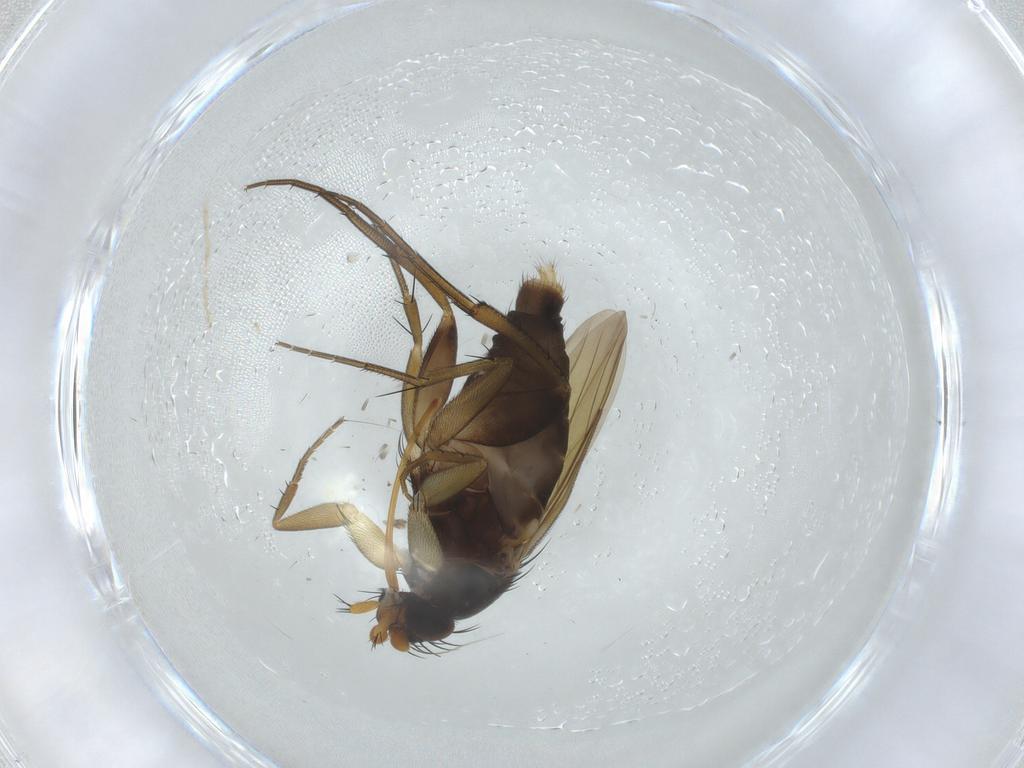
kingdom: Animalia
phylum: Arthropoda
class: Insecta
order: Diptera
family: Phoridae
